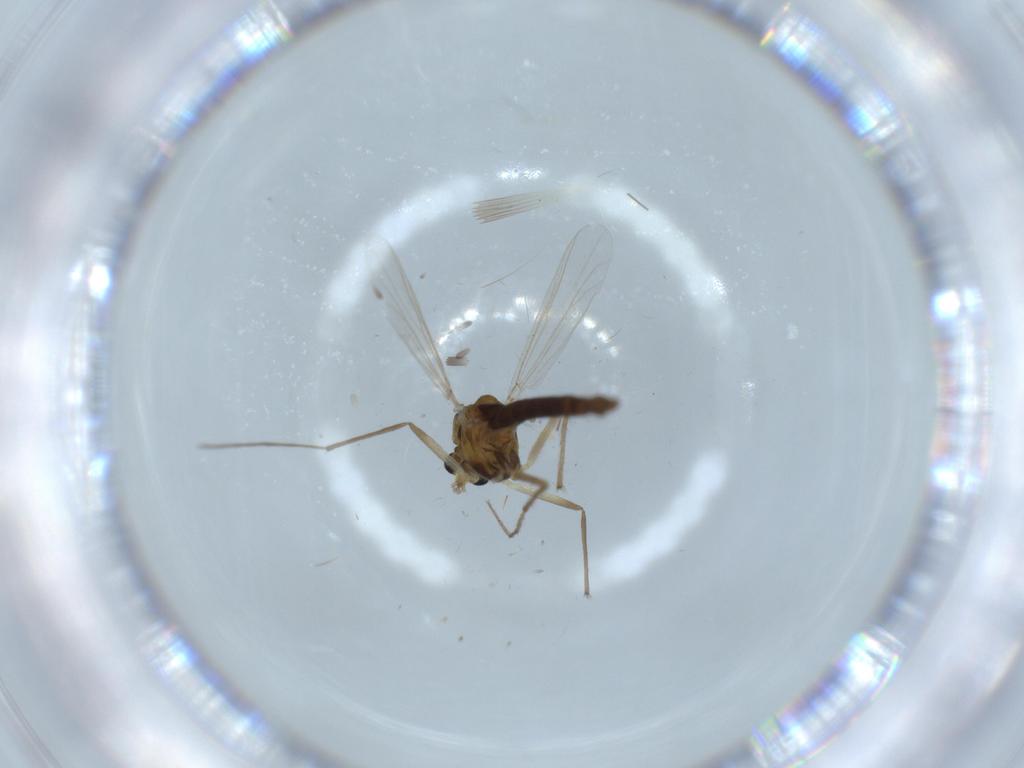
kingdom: Animalia
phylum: Arthropoda
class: Insecta
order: Diptera
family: Chironomidae
